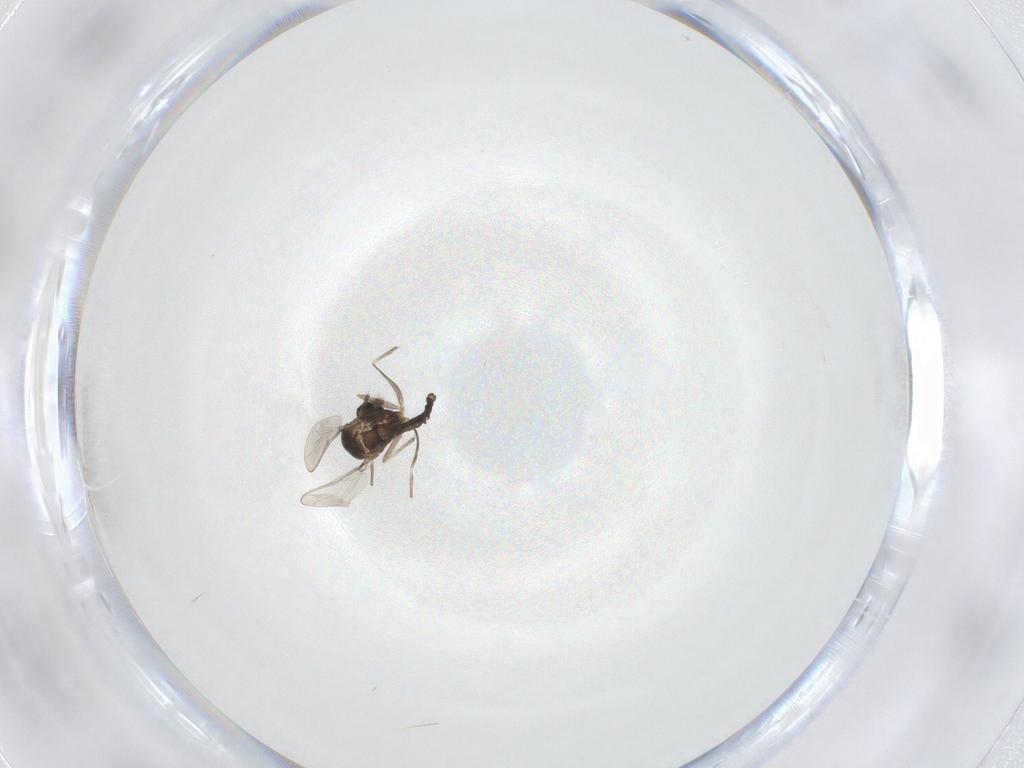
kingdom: Animalia
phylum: Arthropoda
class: Insecta
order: Diptera
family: Chironomidae
